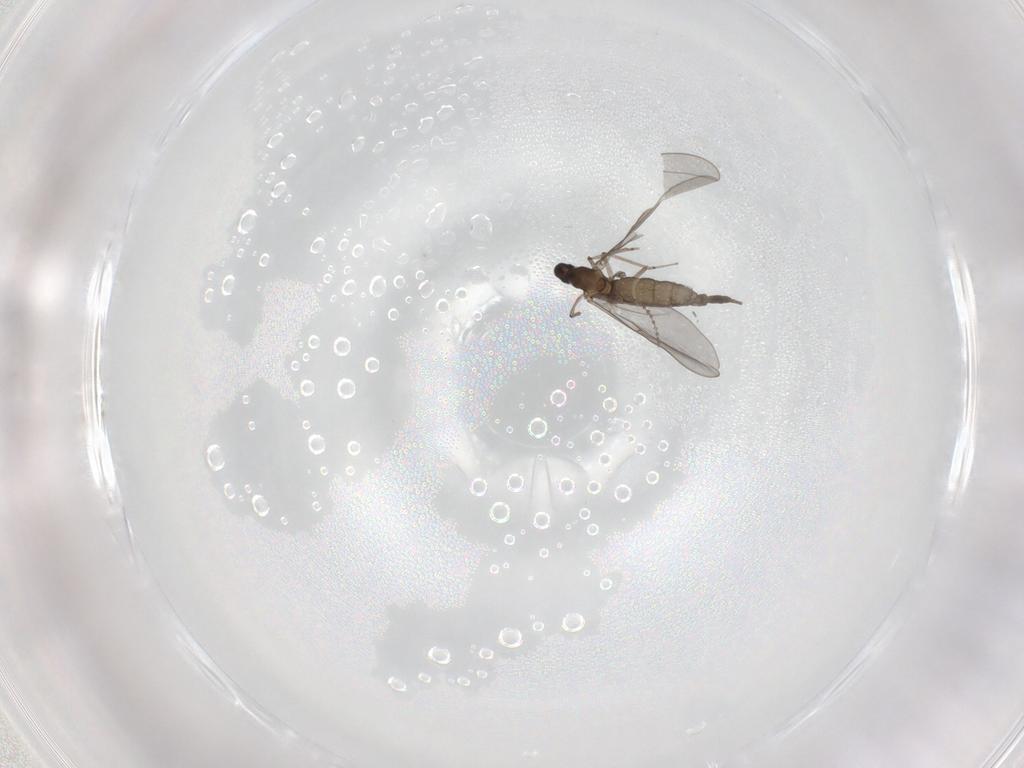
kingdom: Animalia
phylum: Arthropoda
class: Insecta
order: Diptera
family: Cecidomyiidae
